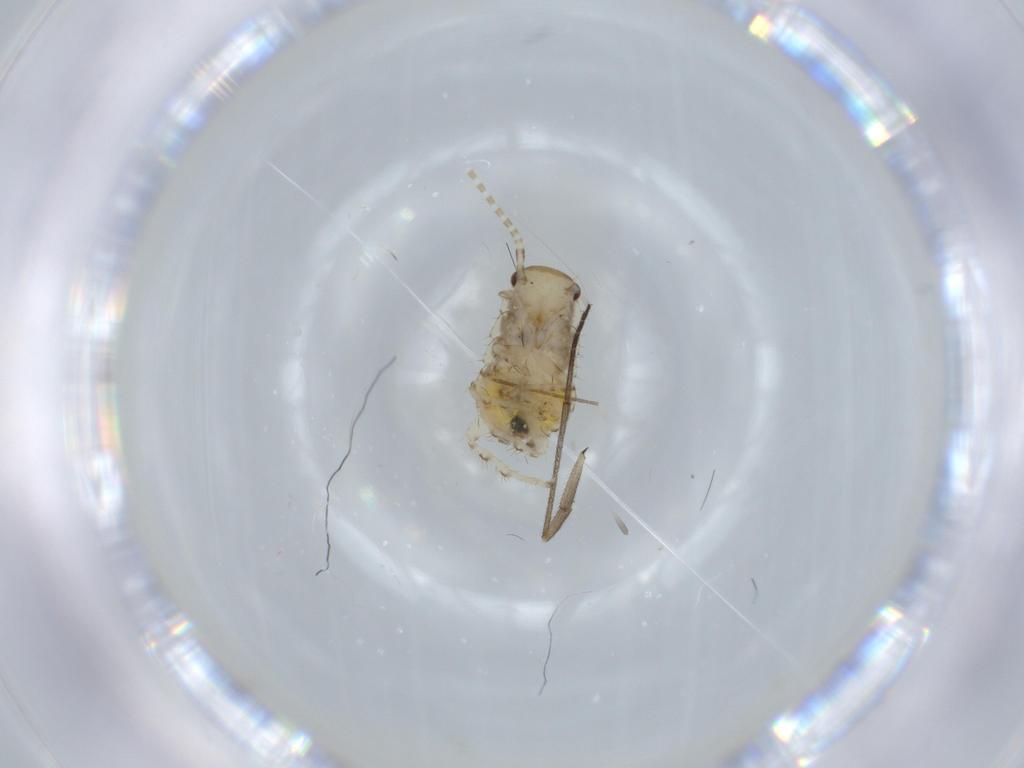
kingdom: Animalia
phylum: Arthropoda
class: Insecta
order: Blattodea
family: Ectobiidae
